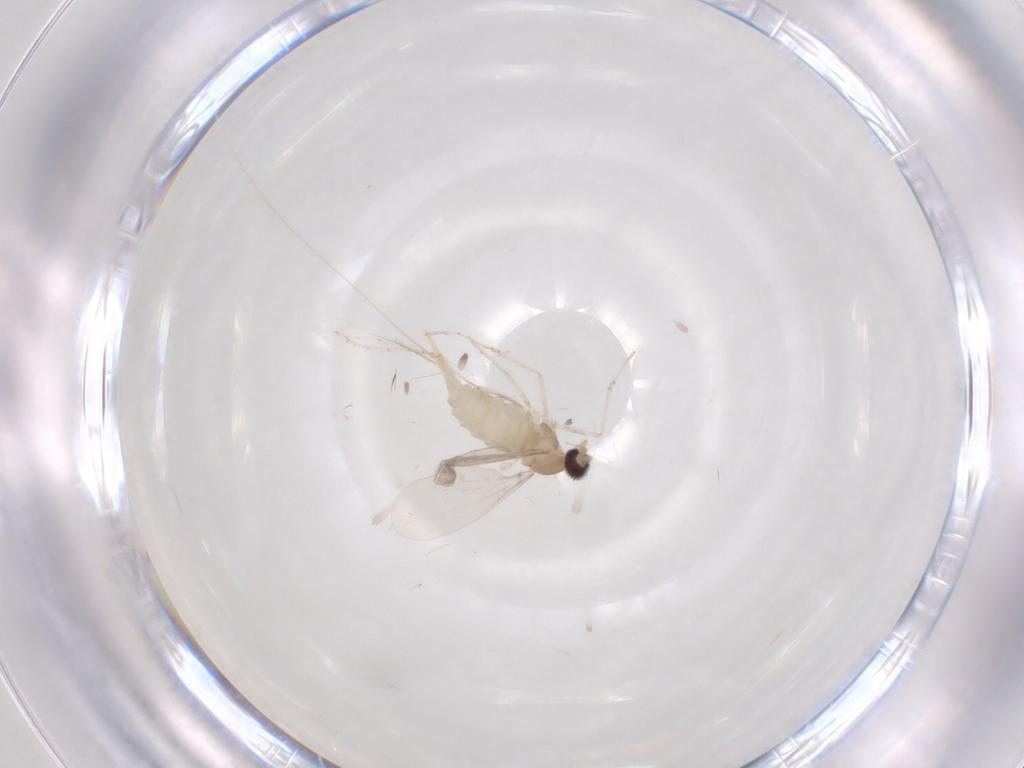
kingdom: Animalia
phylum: Arthropoda
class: Insecta
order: Diptera
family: Cecidomyiidae
